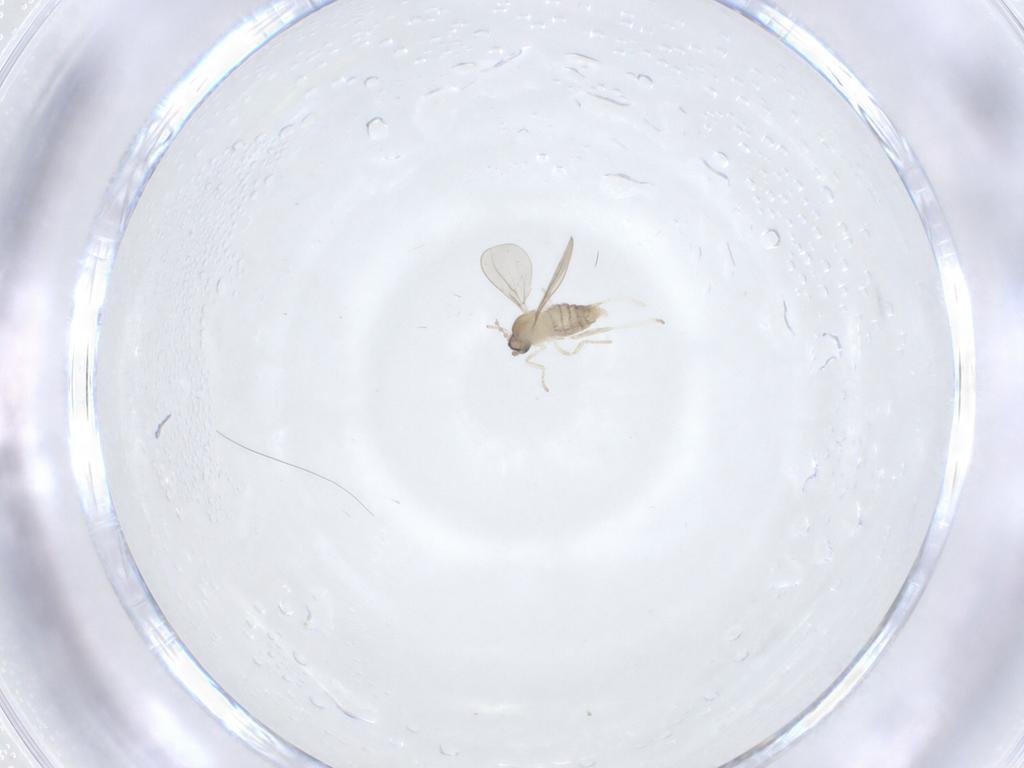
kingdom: Animalia
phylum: Arthropoda
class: Insecta
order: Diptera
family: Cecidomyiidae
